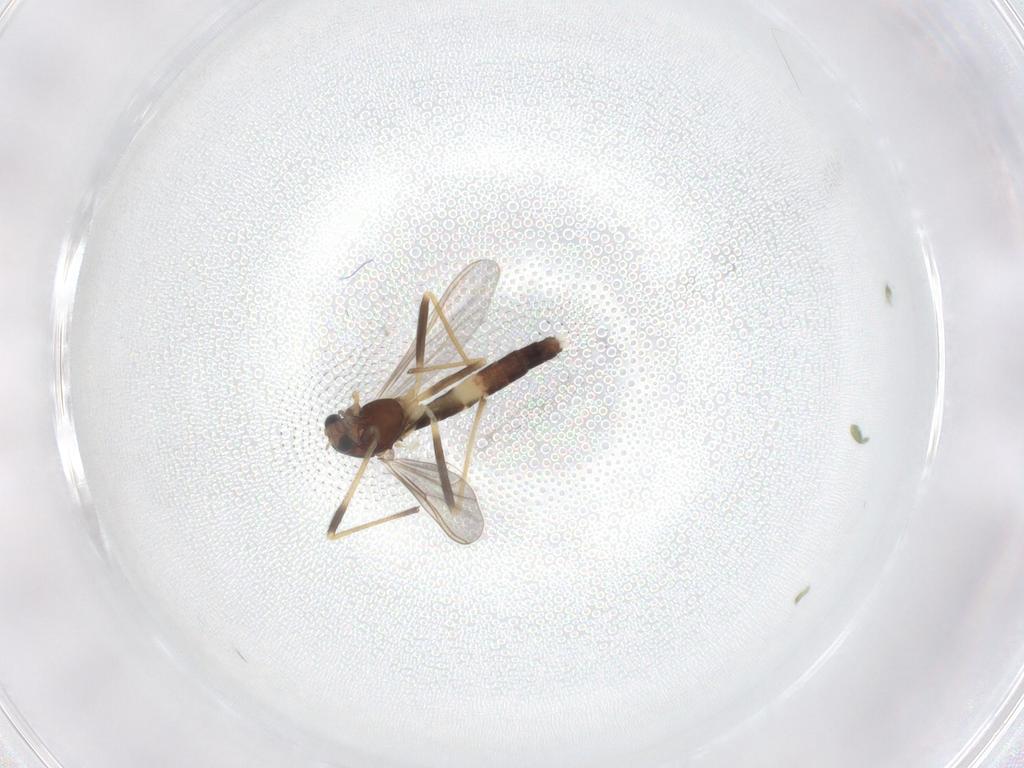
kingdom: Animalia
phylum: Arthropoda
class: Insecta
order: Diptera
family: Chironomidae
